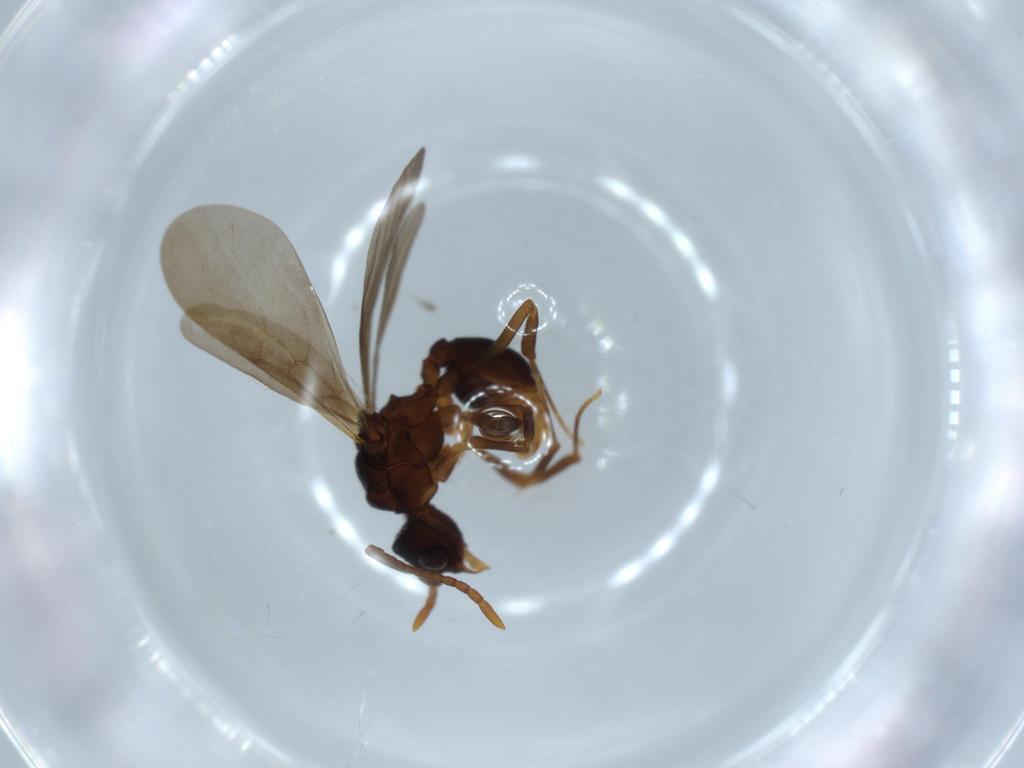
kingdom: Animalia
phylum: Arthropoda
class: Insecta
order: Hymenoptera
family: Formicidae
